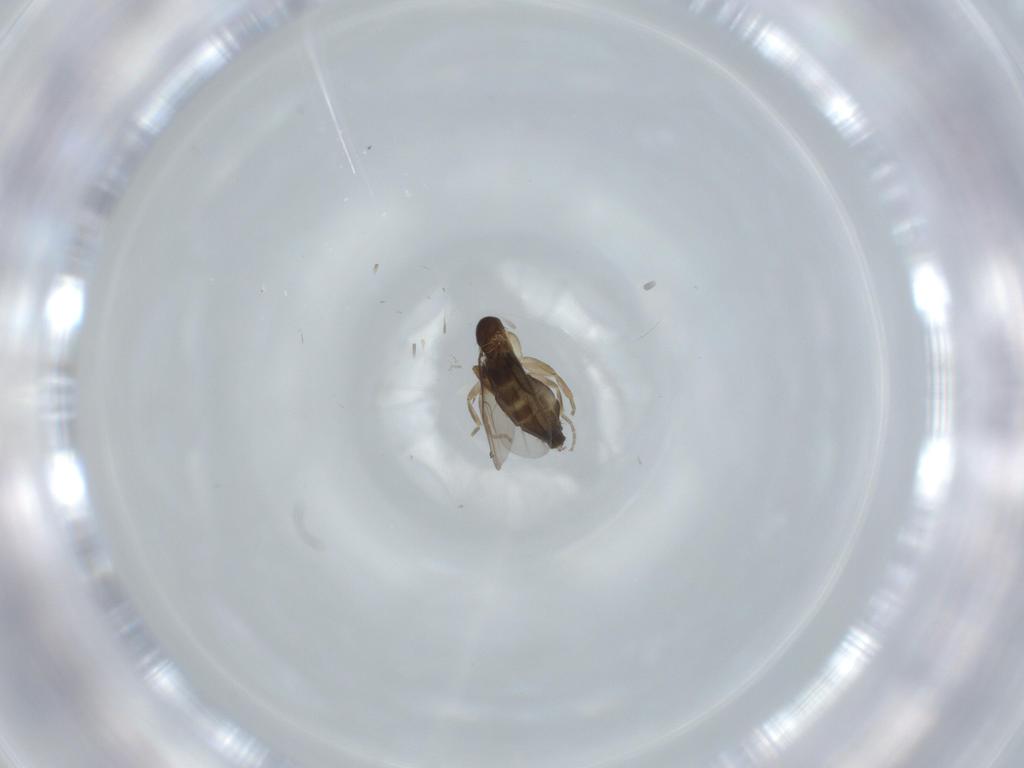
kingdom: Animalia
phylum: Arthropoda
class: Insecta
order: Diptera
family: Phoridae
